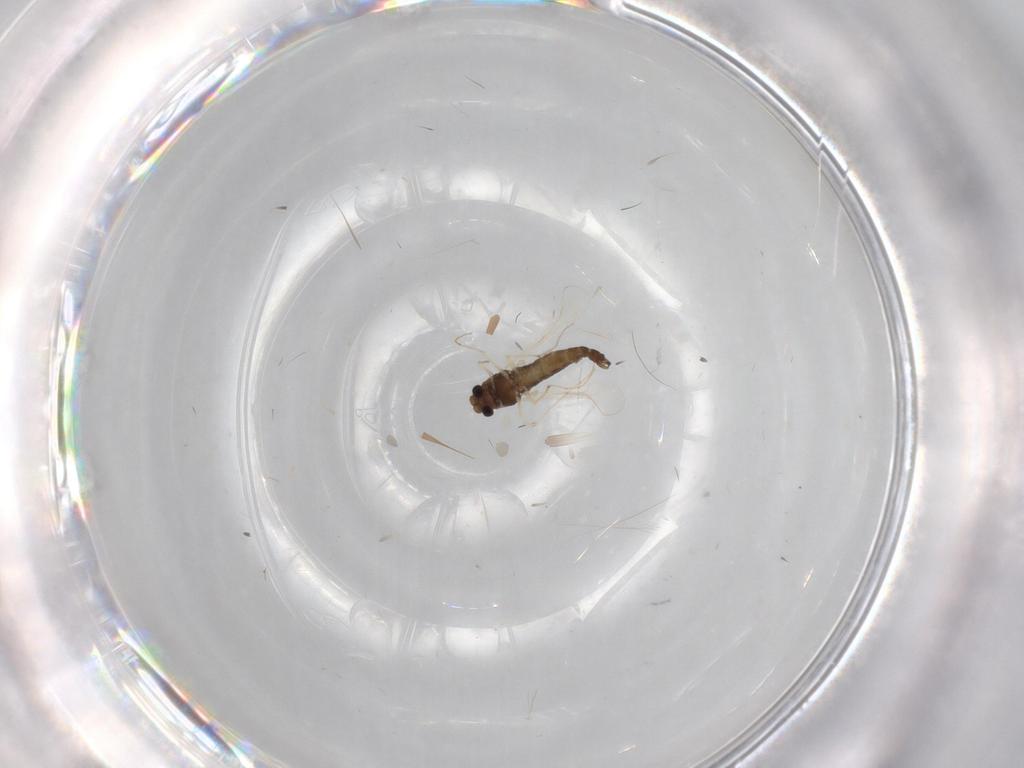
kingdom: Animalia
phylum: Arthropoda
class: Insecta
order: Diptera
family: Chironomidae
